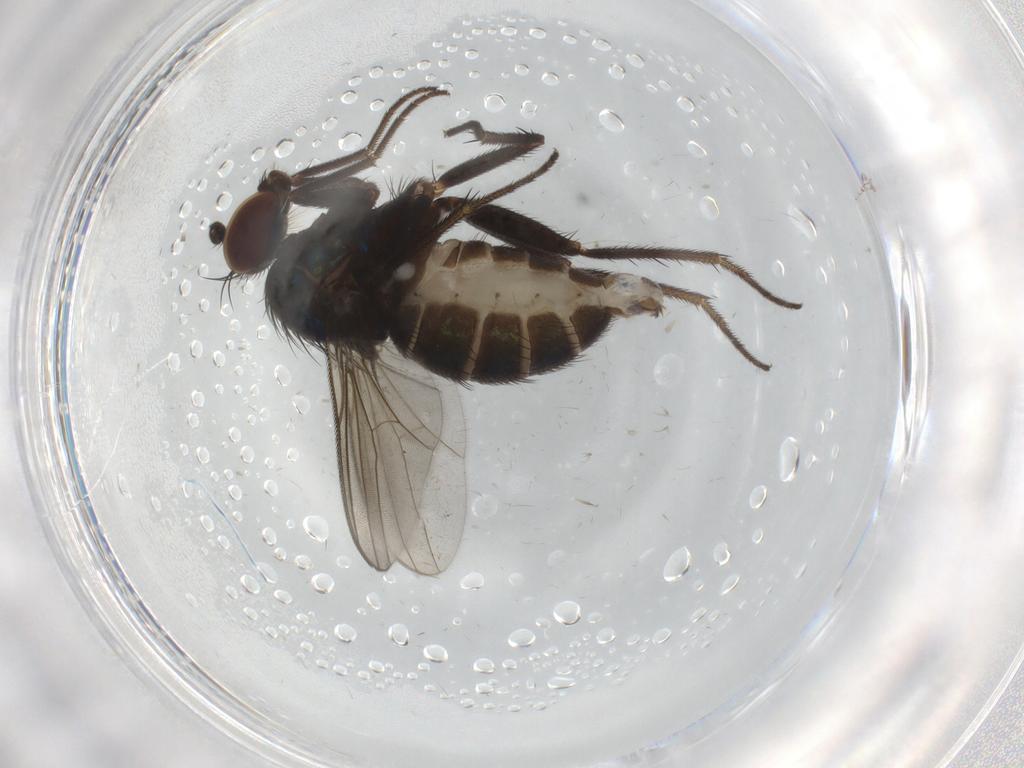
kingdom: Animalia
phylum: Arthropoda
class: Insecta
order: Diptera
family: Dolichopodidae
